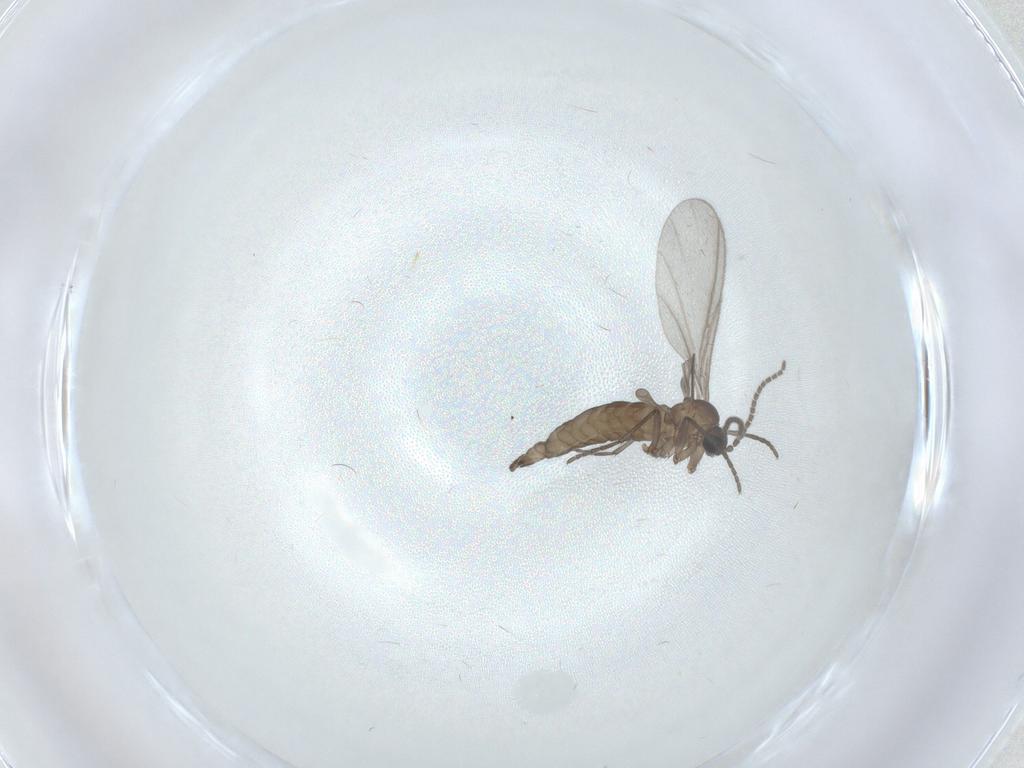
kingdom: Animalia
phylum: Arthropoda
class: Insecta
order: Diptera
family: Sciaridae
